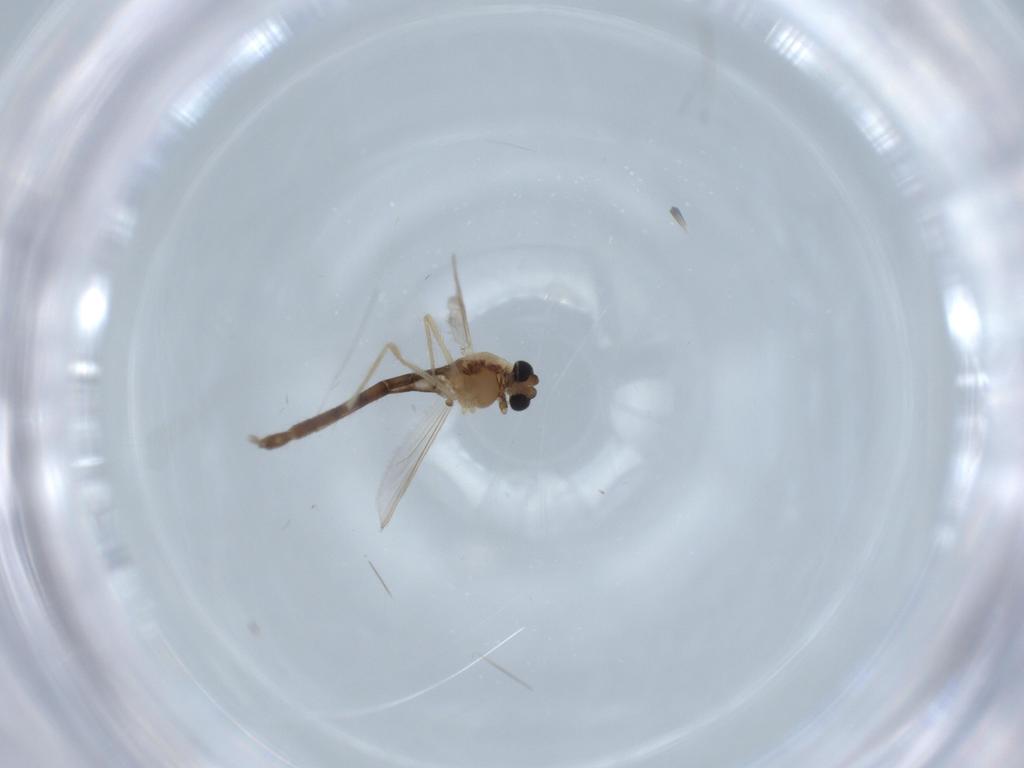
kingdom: Animalia
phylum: Arthropoda
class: Insecta
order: Diptera
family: Chironomidae
